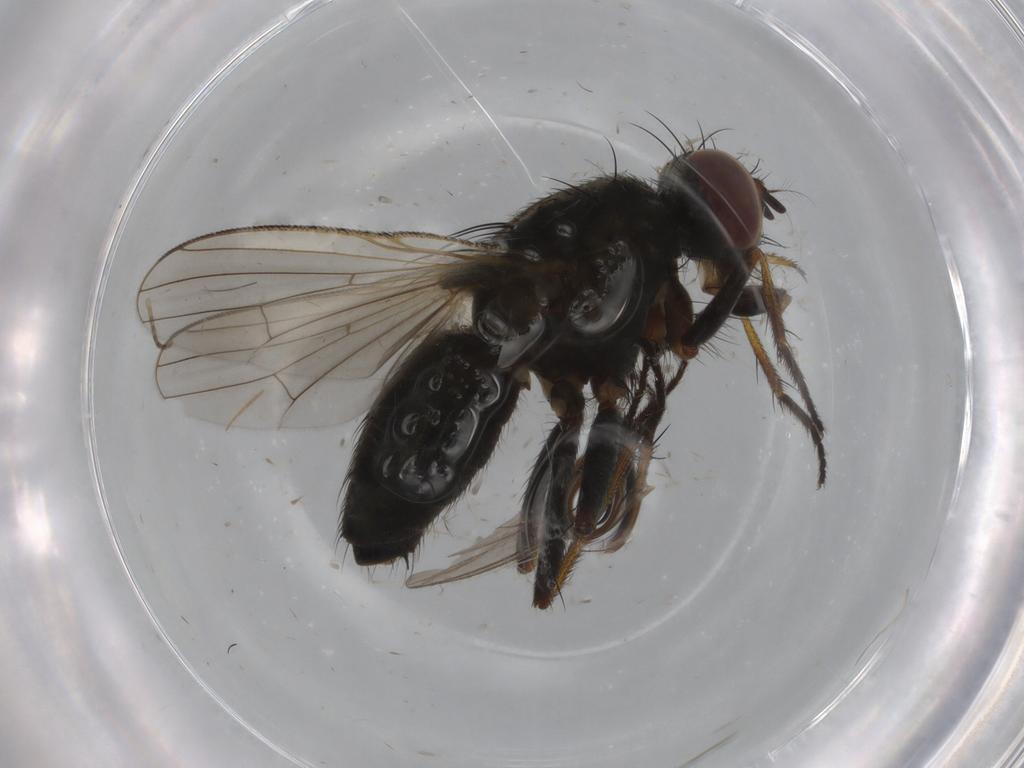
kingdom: Animalia
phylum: Arthropoda
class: Insecta
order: Diptera
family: Muscidae
